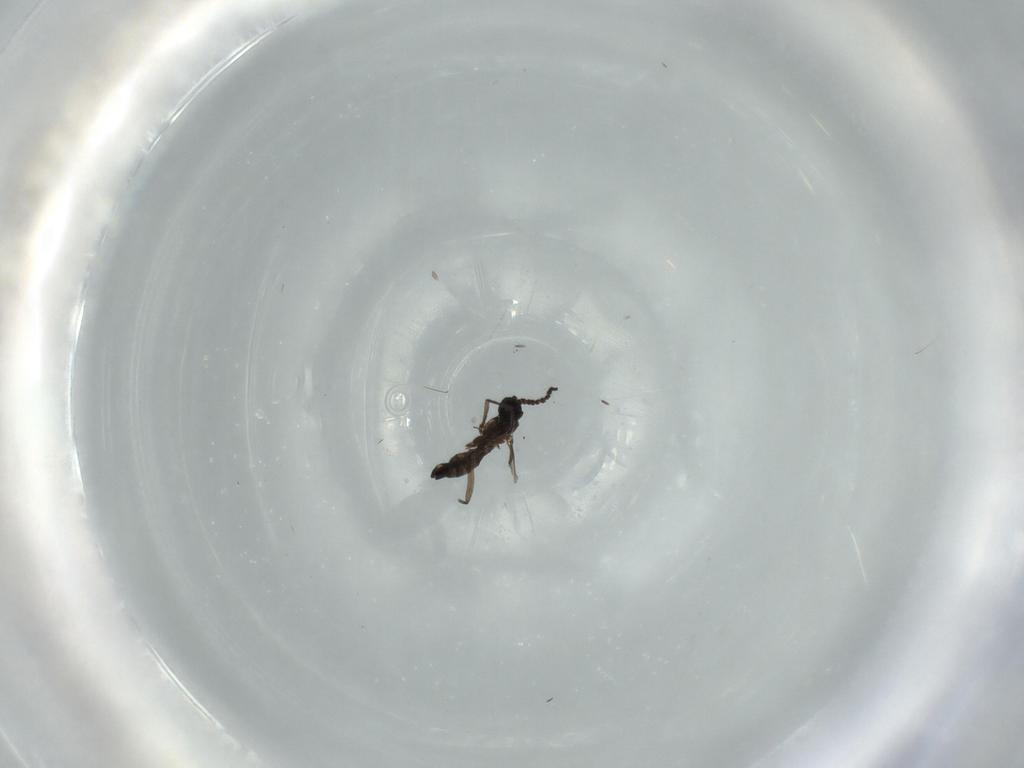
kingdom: Animalia
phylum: Arthropoda
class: Insecta
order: Diptera
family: Sciaridae
